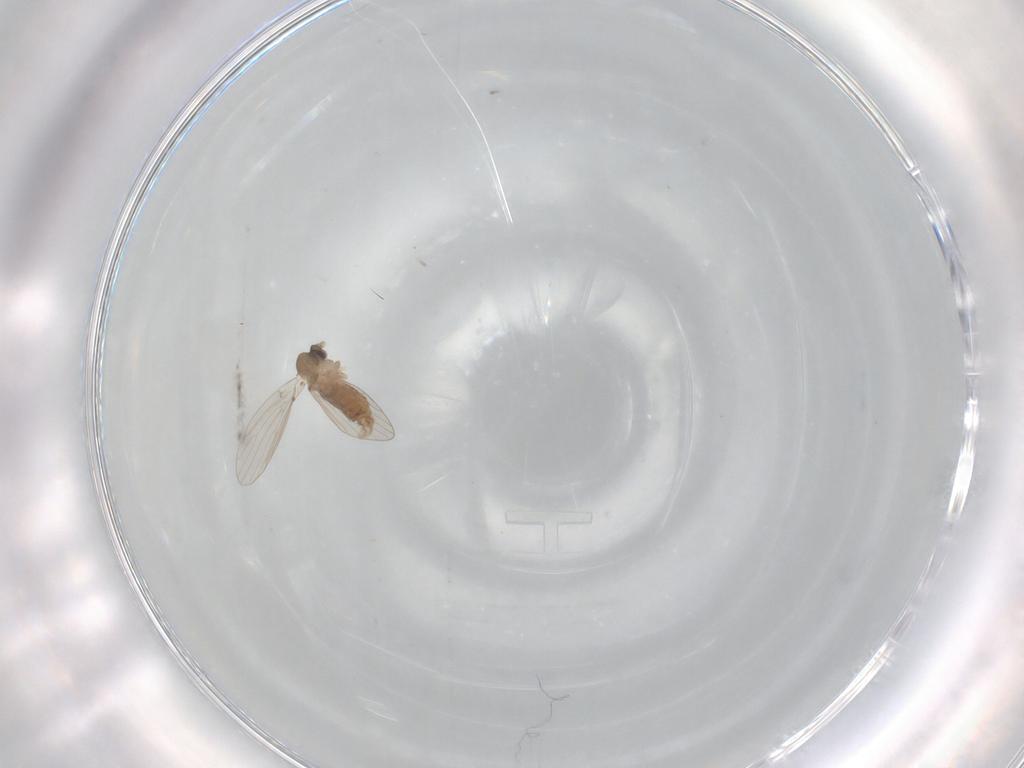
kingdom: Animalia
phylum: Arthropoda
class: Insecta
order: Diptera
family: Psychodidae
